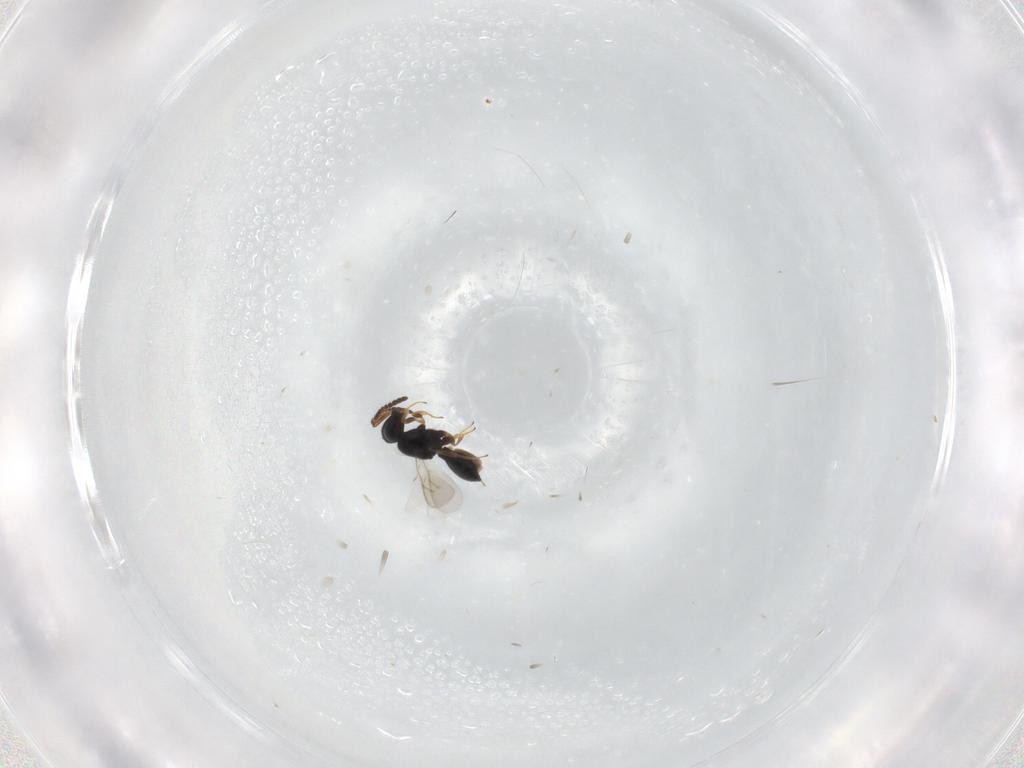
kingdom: Animalia
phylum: Arthropoda
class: Insecta
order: Hymenoptera
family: Scelionidae
